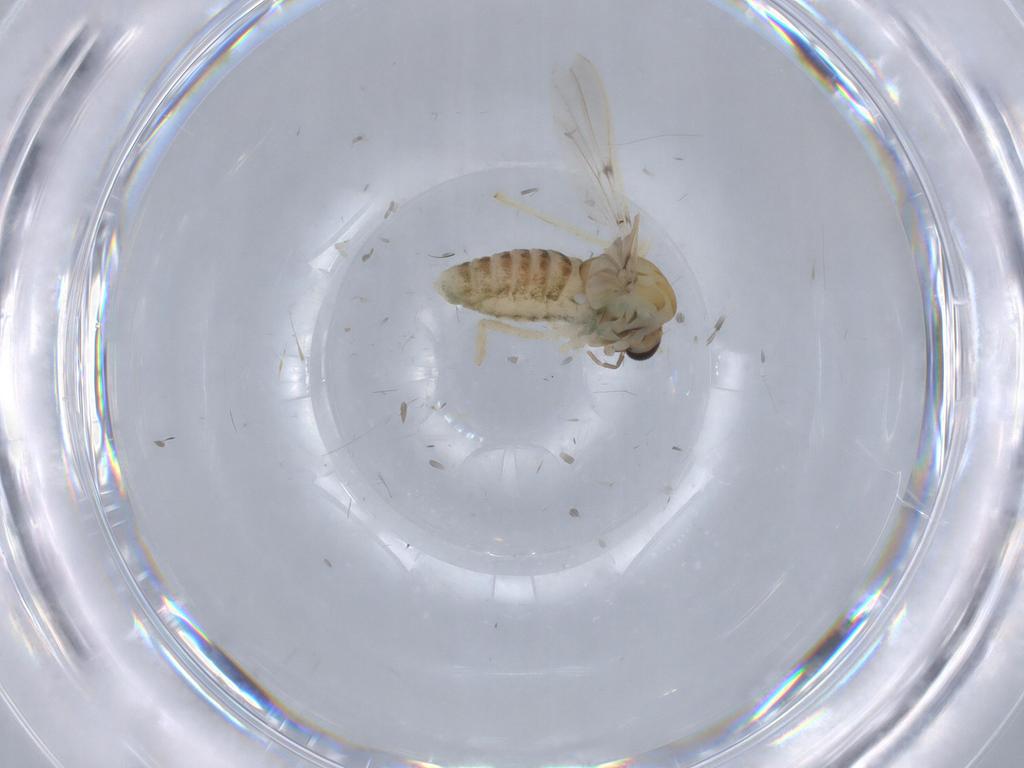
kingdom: Animalia
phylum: Arthropoda
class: Insecta
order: Diptera
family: Chironomidae
